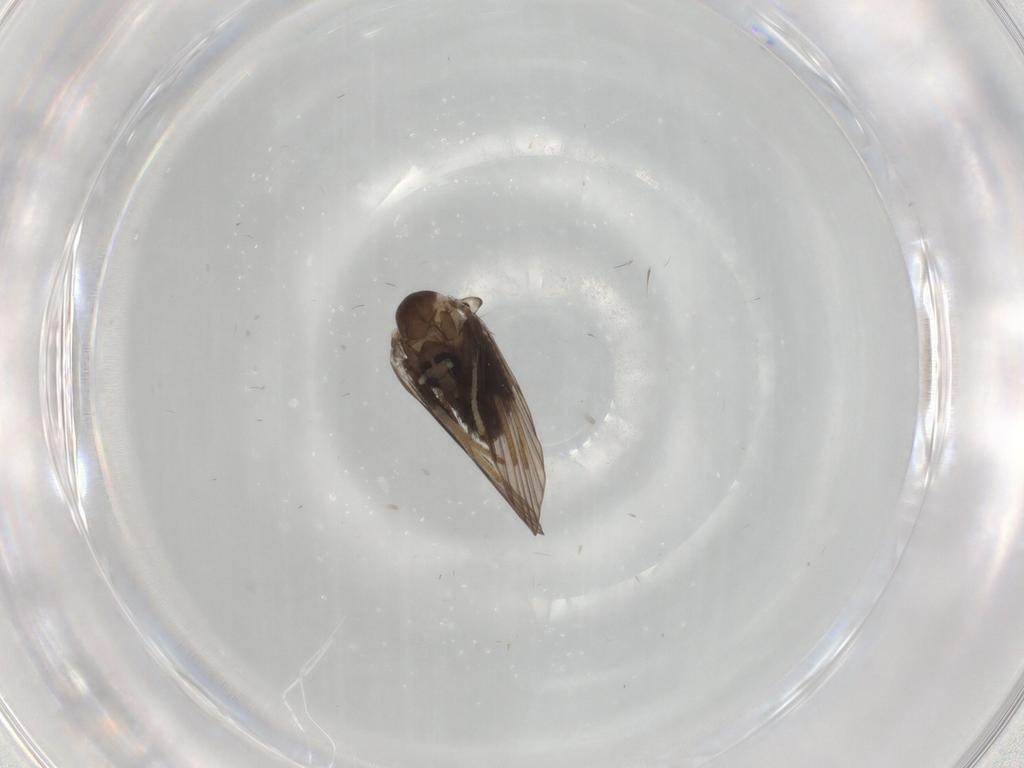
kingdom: Animalia
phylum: Arthropoda
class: Insecta
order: Diptera
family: Psychodidae
